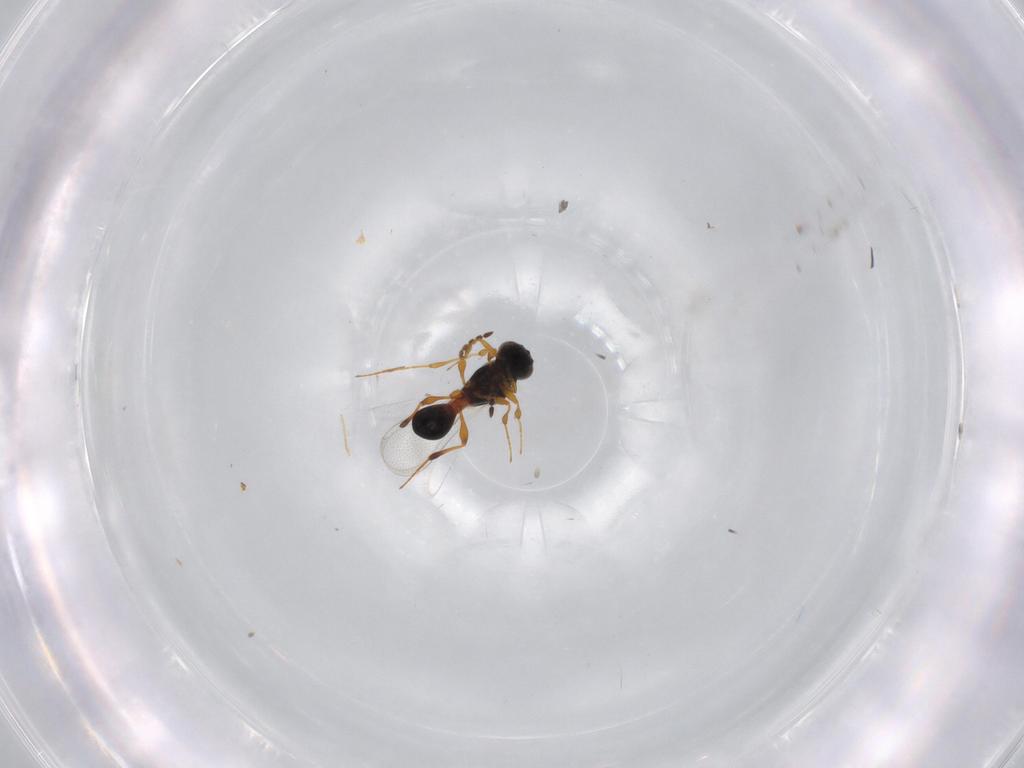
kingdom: Animalia
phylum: Arthropoda
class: Insecta
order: Hymenoptera
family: Platygastridae
